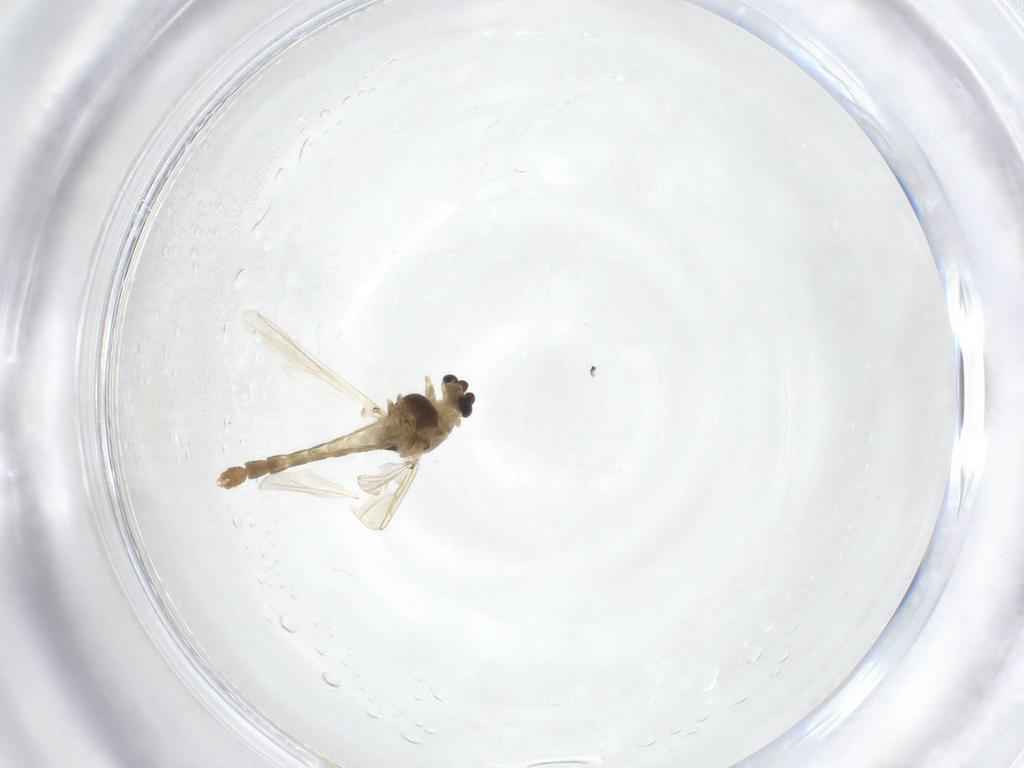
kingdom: Animalia
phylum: Arthropoda
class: Insecta
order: Diptera
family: Chironomidae
